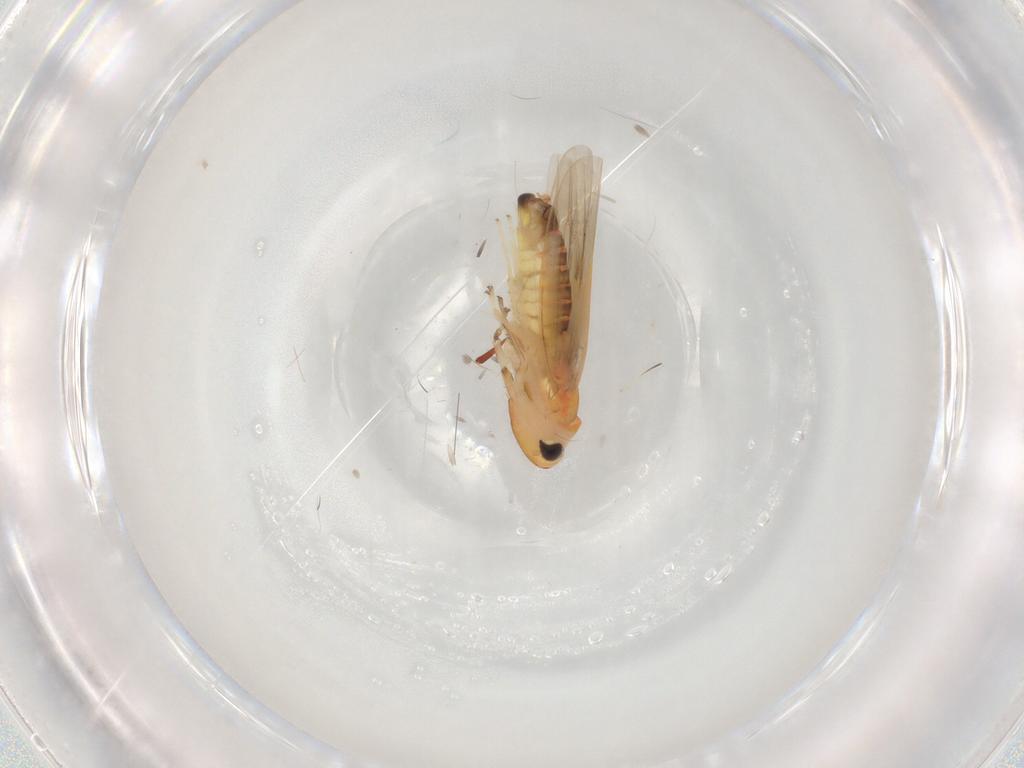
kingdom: Animalia
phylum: Arthropoda
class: Insecta
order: Hemiptera
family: Cicadellidae
